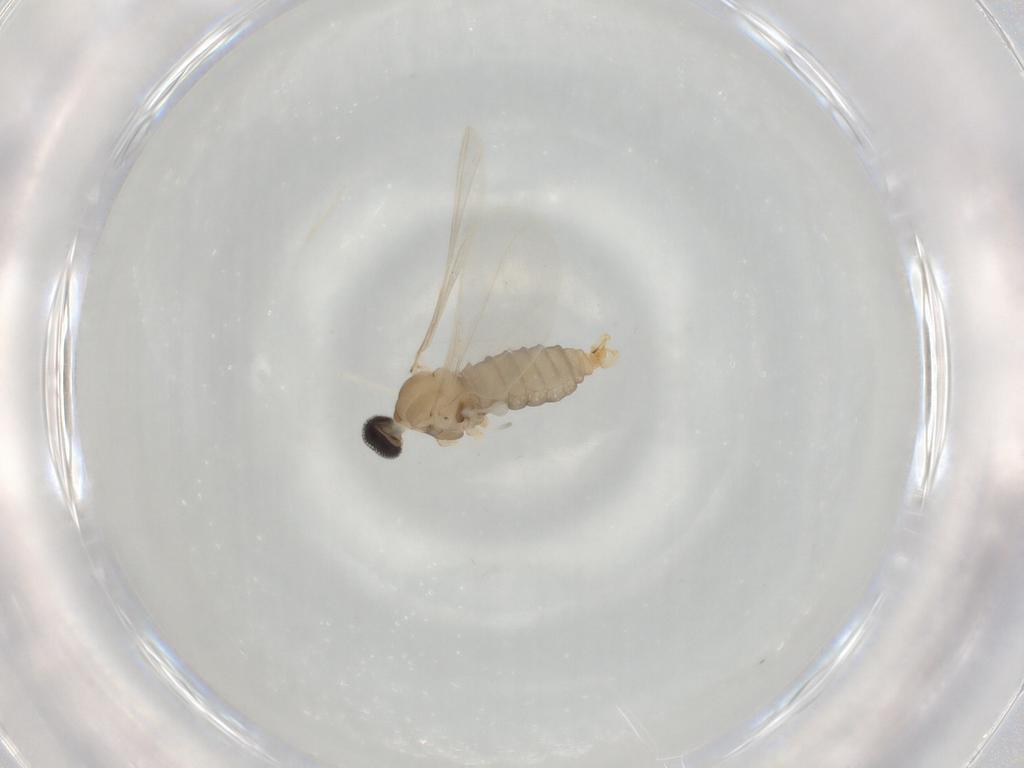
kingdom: Animalia
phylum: Arthropoda
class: Insecta
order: Diptera
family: Cecidomyiidae
